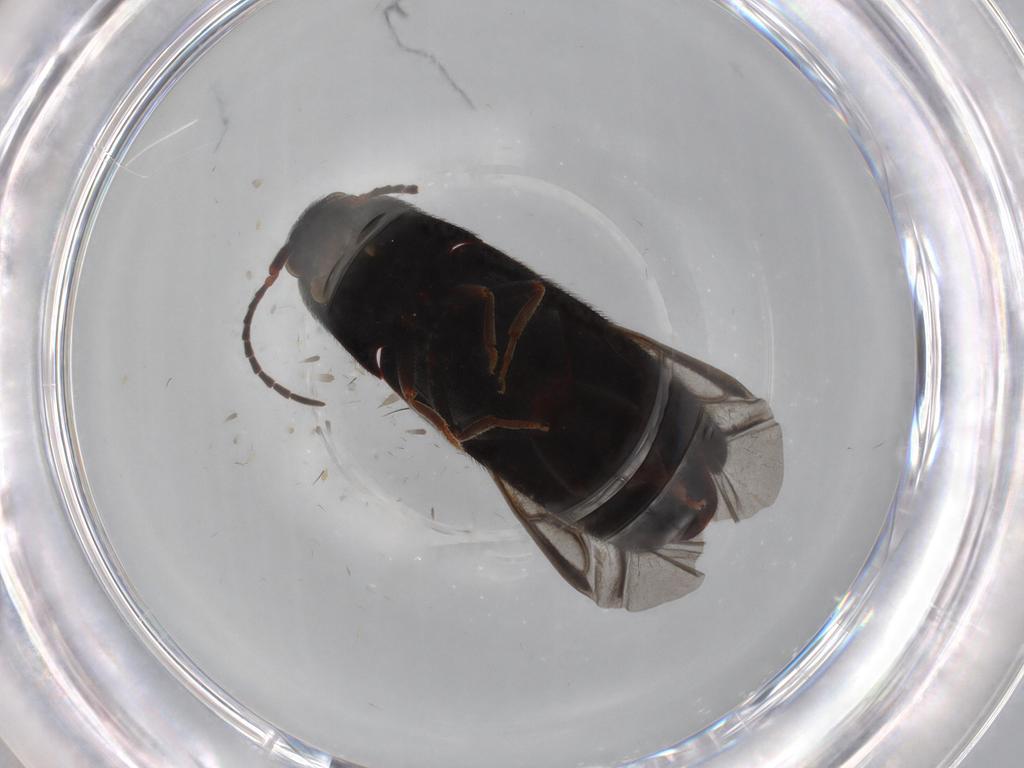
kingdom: Animalia
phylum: Arthropoda
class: Insecta
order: Coleoptera
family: Eucnemidae
